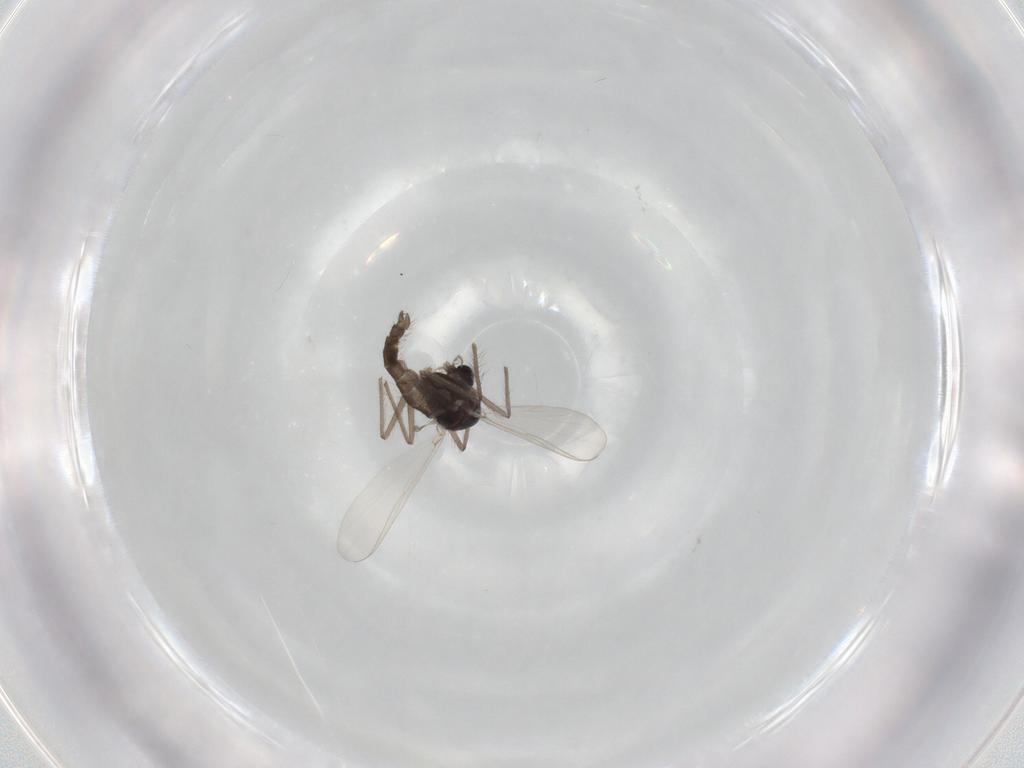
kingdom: Animalia
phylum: Arthropoda
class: Insecta
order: Diptera
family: Chironomidae
